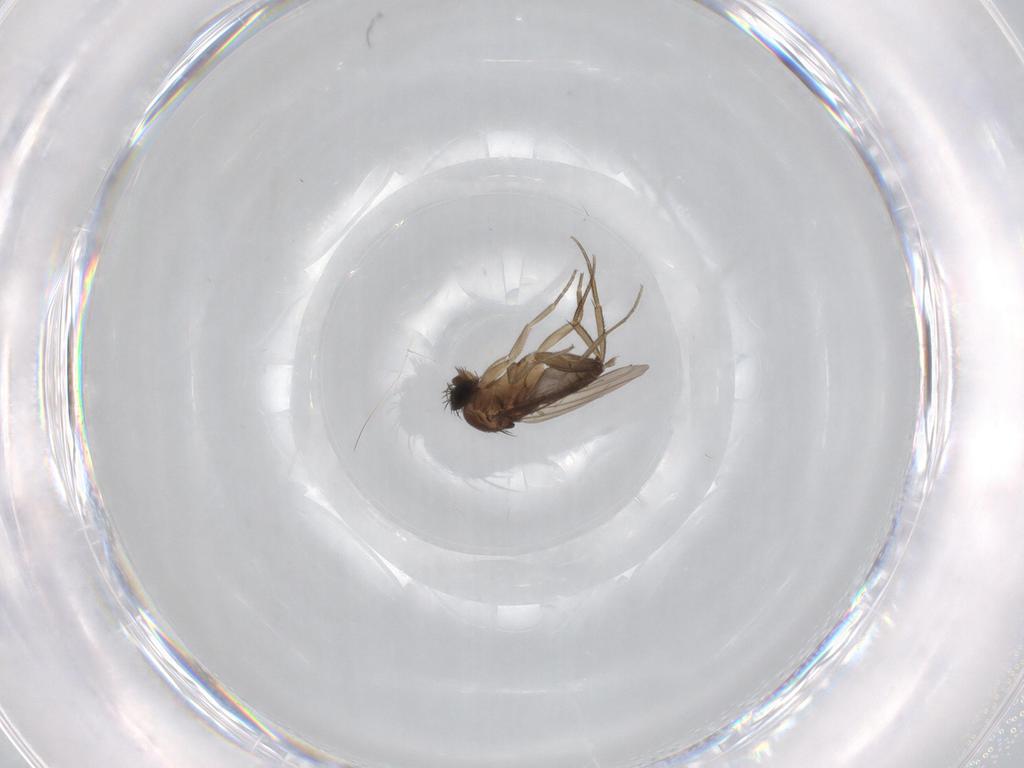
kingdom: Animalia
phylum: Arthropoda
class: Insecta
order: Diptera
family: Phoridae
